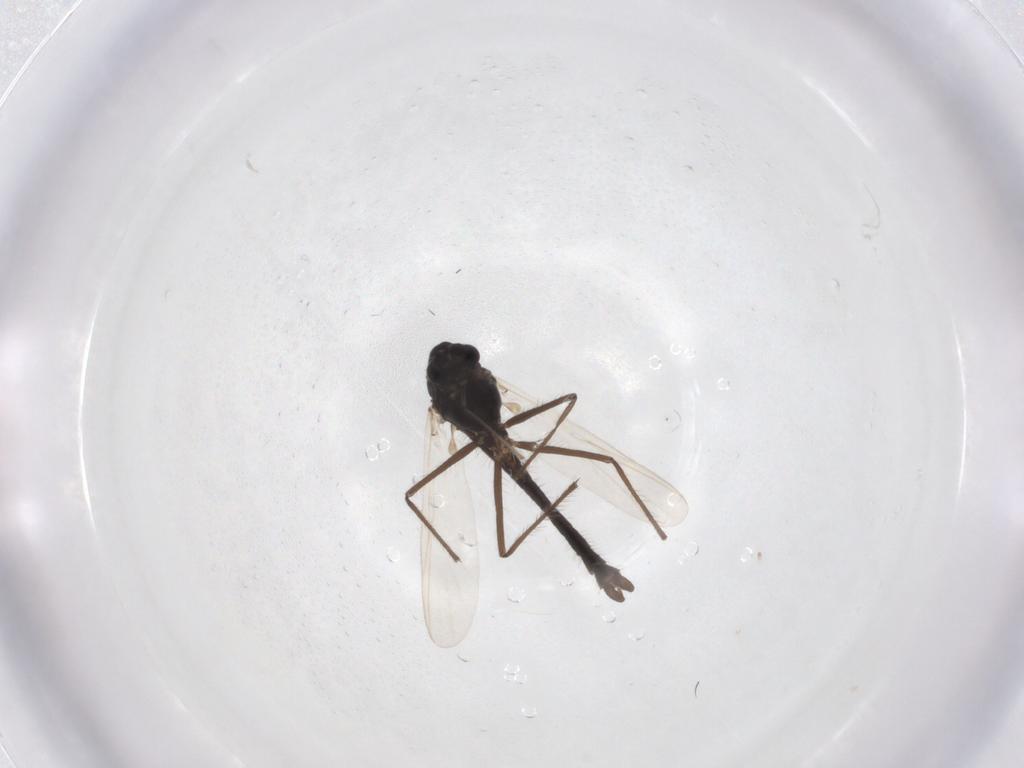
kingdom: Animalia
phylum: Arthropoda
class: Insecta
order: Diptera
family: Chironomidae
